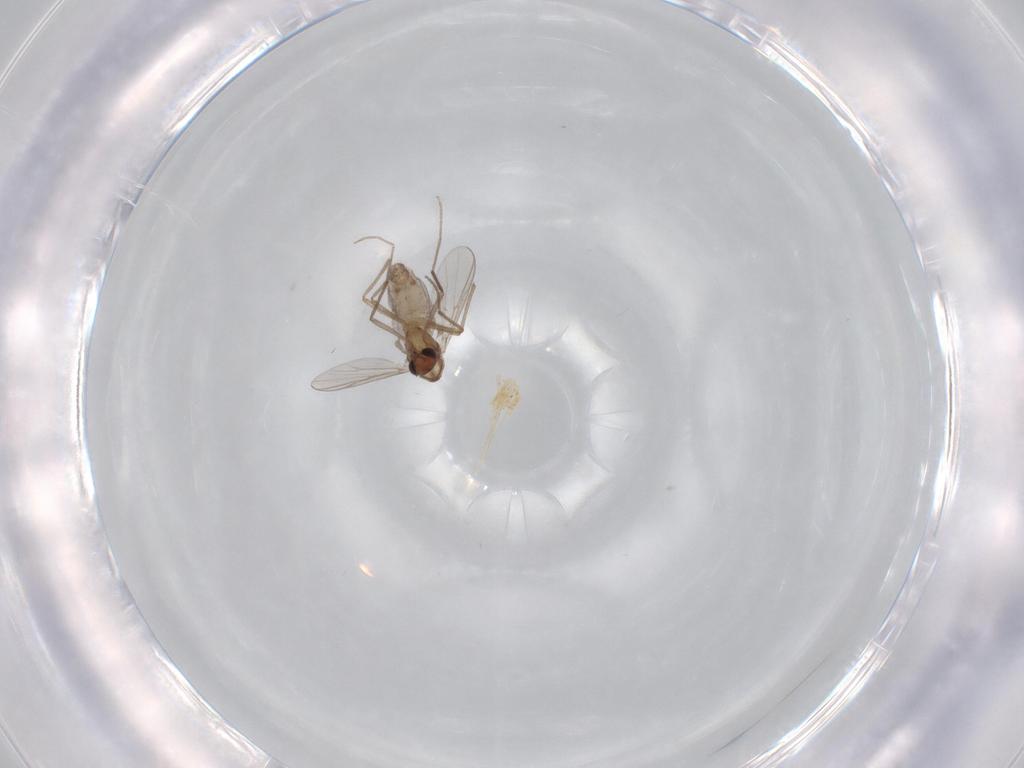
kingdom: Animalia
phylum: Arthropoda
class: Insecta
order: Diptera
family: Chironomidae
